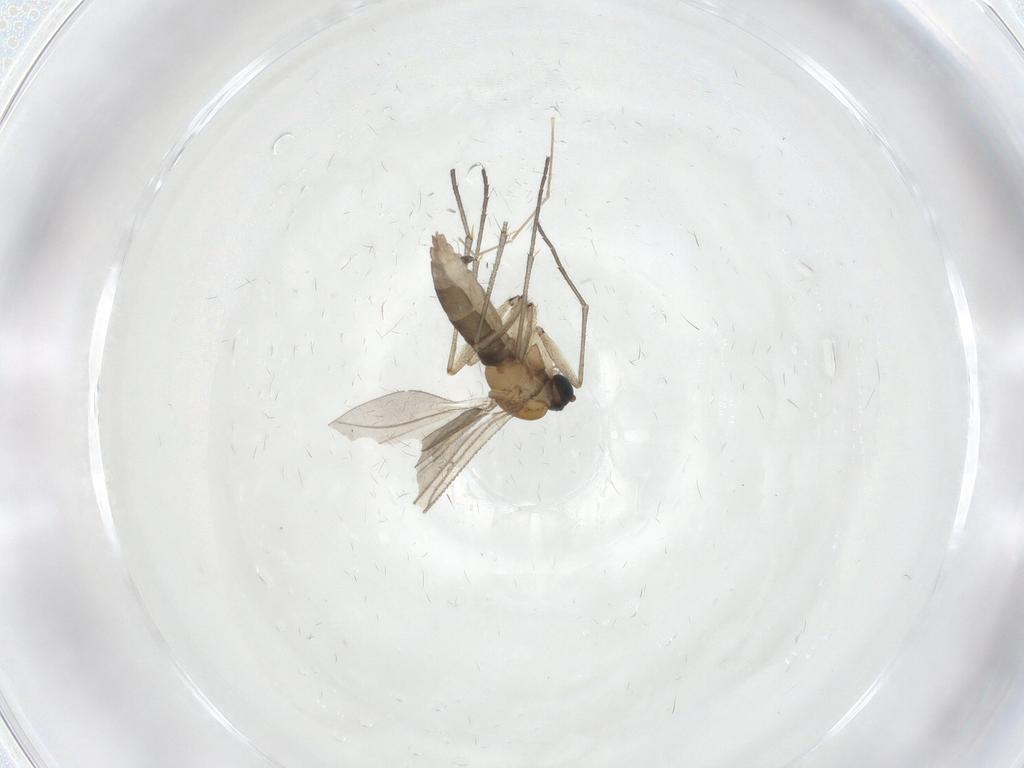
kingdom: Animalia
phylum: Arthropoda
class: Insecta
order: Diptera
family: Sciaridae
